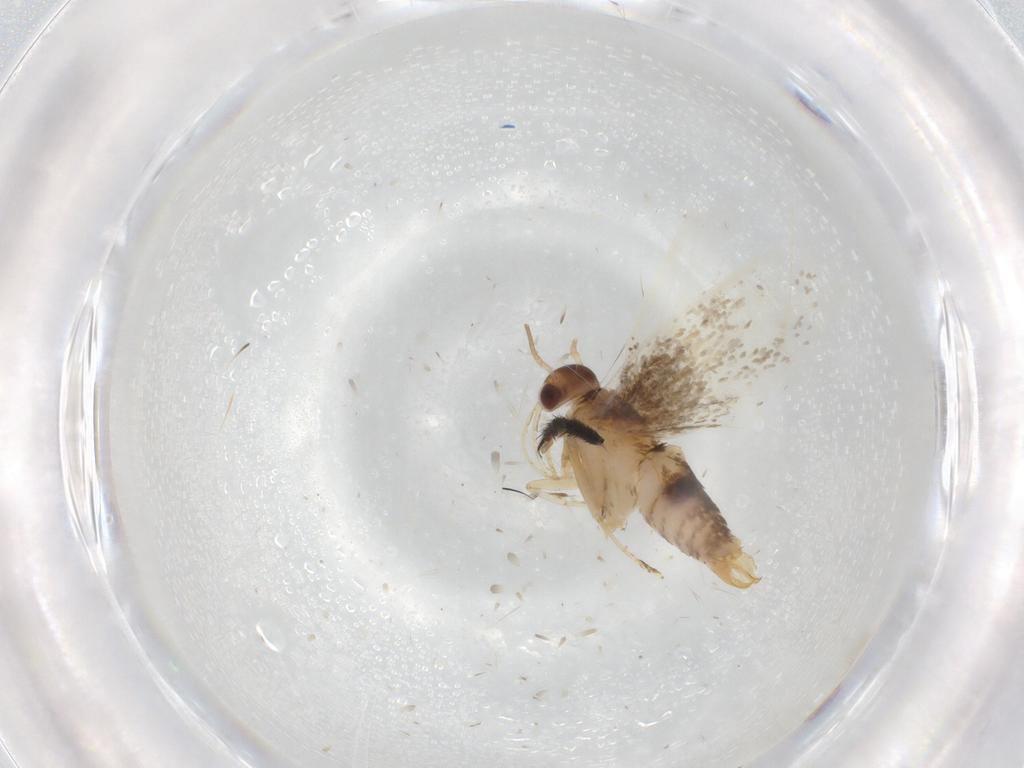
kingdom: Animalia
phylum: Arthropoda
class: Insecta
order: Lepidoptera
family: Oecophoridae
